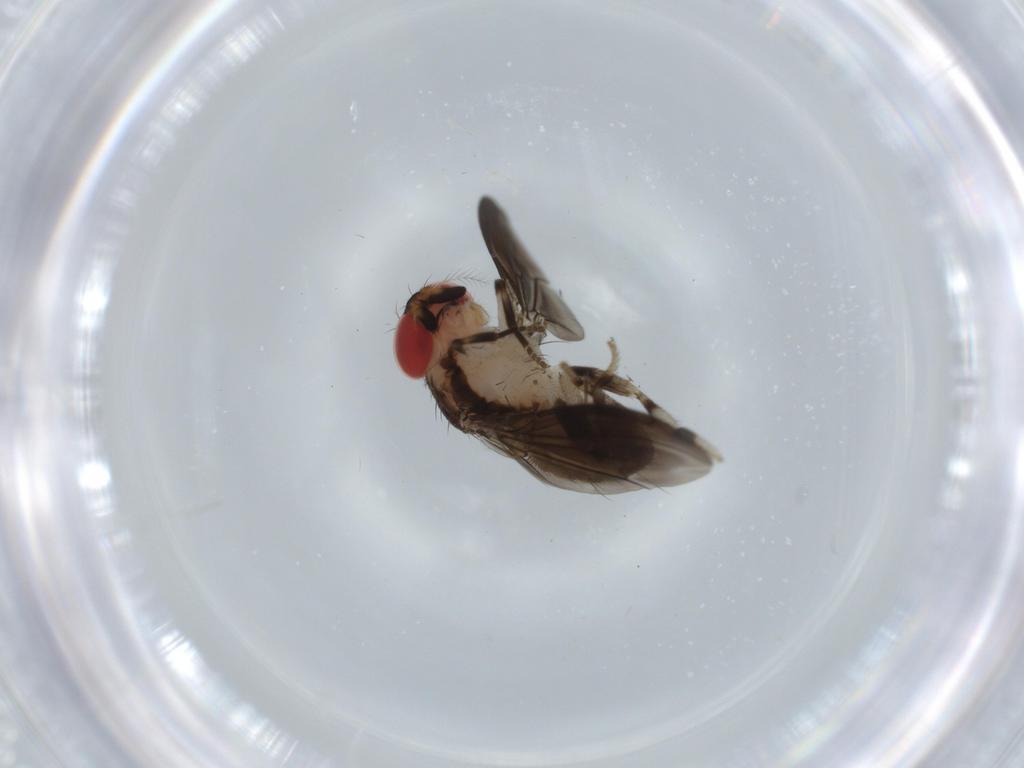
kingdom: Animalia
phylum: Arthropoda
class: Insecta
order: Diptera
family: Drosophilidae
